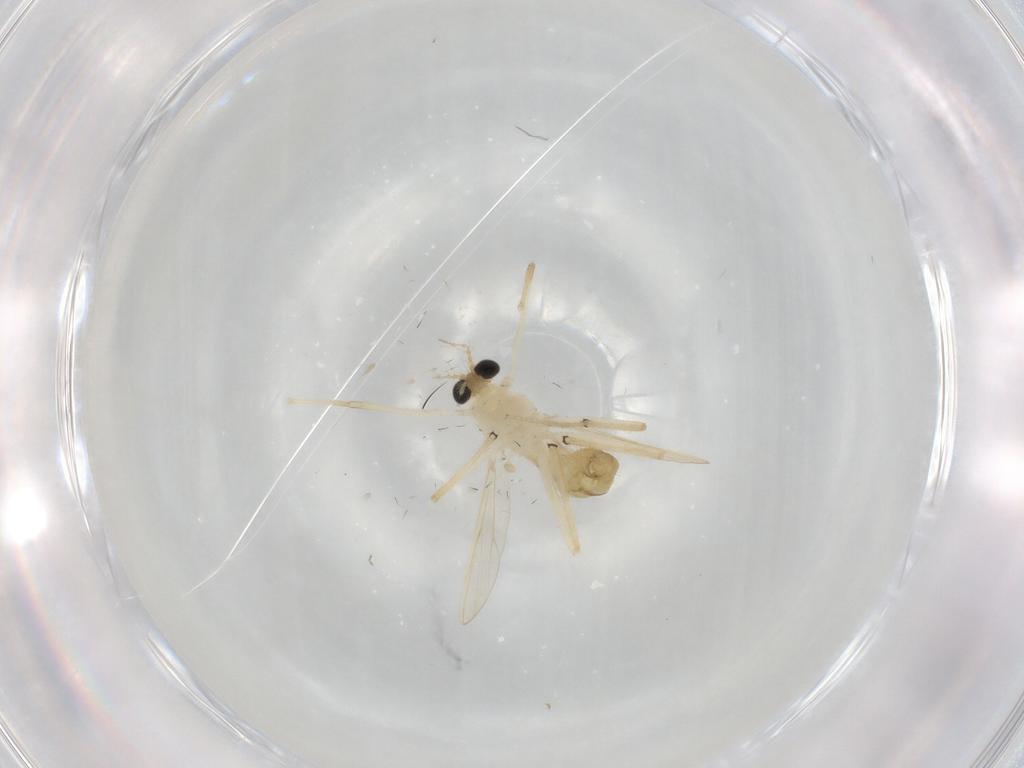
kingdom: Animalia
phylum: Arthropoda
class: Insecta
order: Diptera
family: Chironomidae
